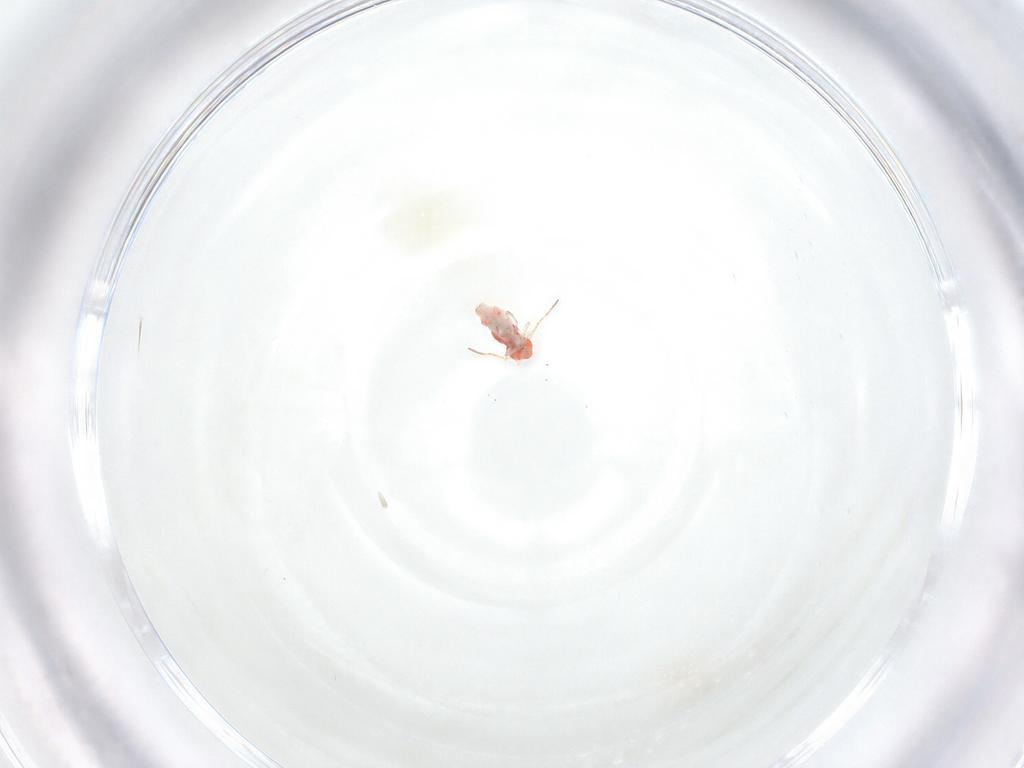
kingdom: Animalia
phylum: Arthropoda
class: Collembola
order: Symphypleona
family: Bourletiellidae
